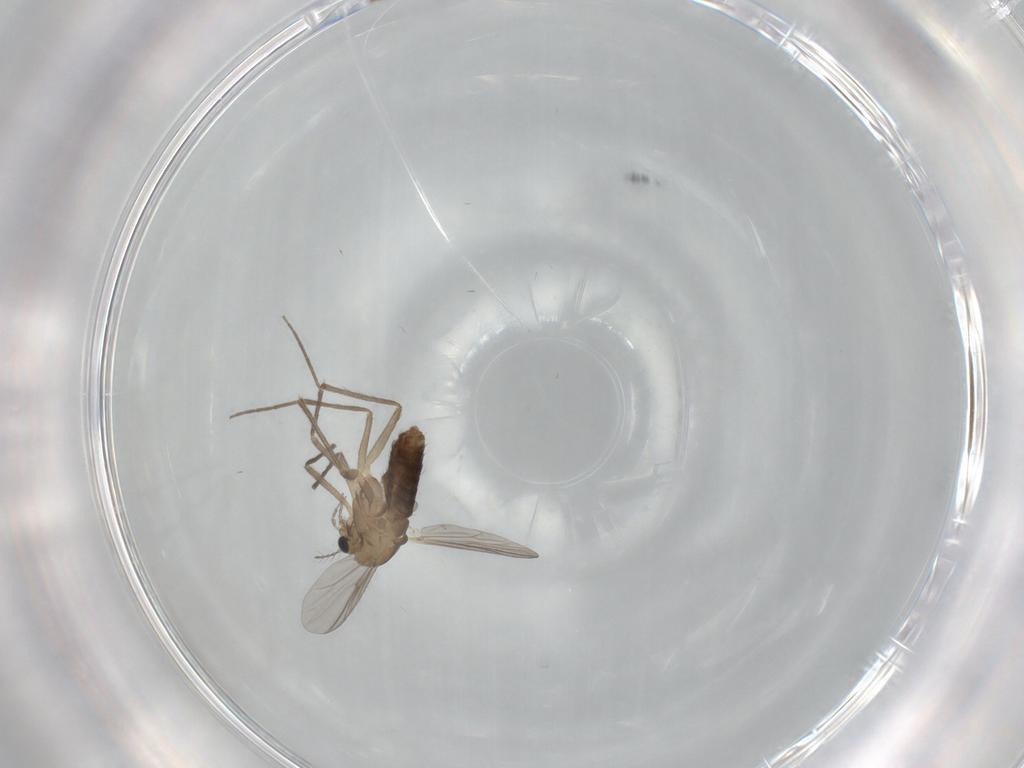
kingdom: Animalia
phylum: Arthropoda
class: Insecta
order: Diptera
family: Chironomidae
